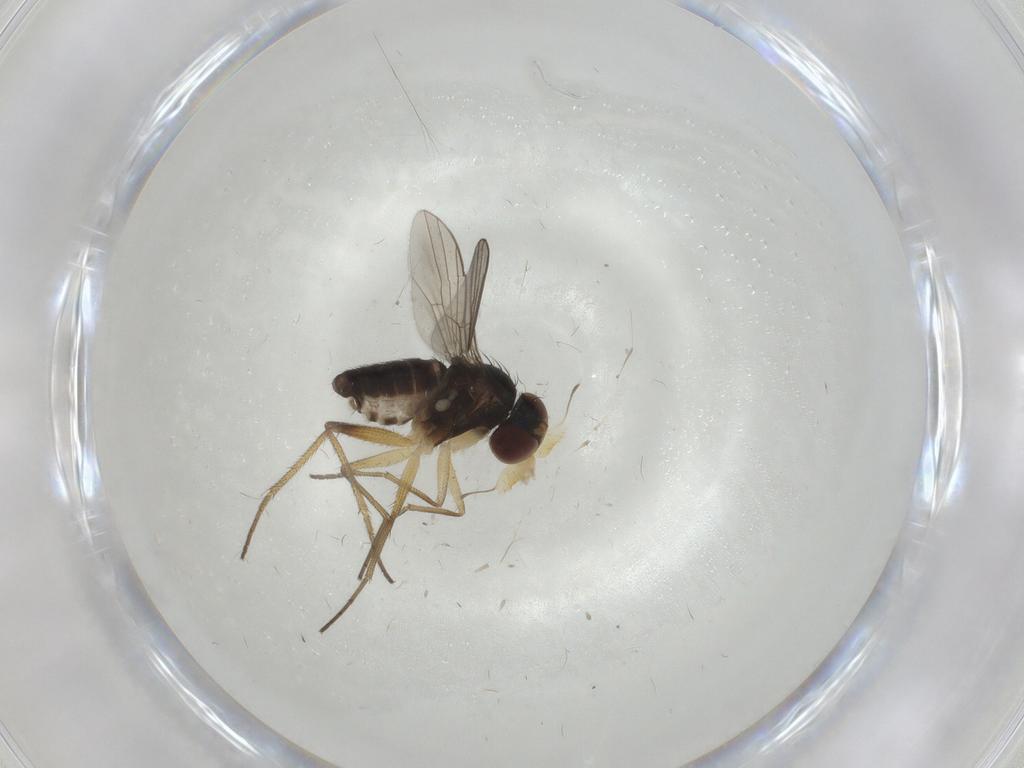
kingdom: Animalia
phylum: Arthropoda
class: Insecta
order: Diptera
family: Dolichopodidae
